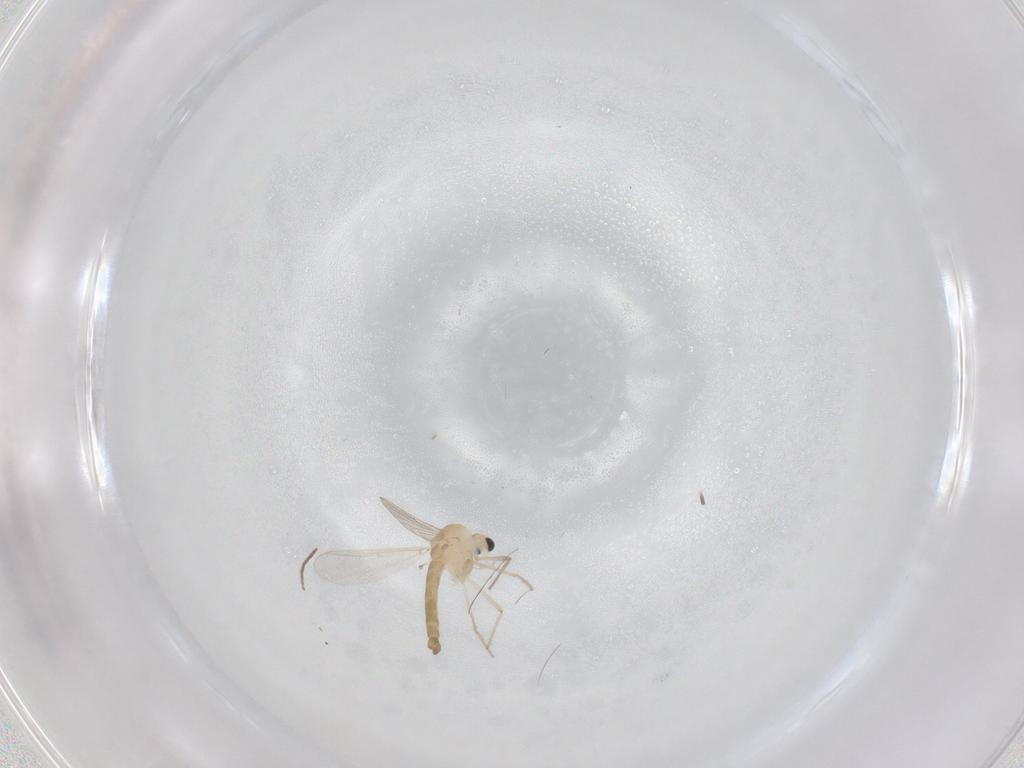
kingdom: Animalia
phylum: Arthropoda
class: Insecta
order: Diptera
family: Chironomidae
